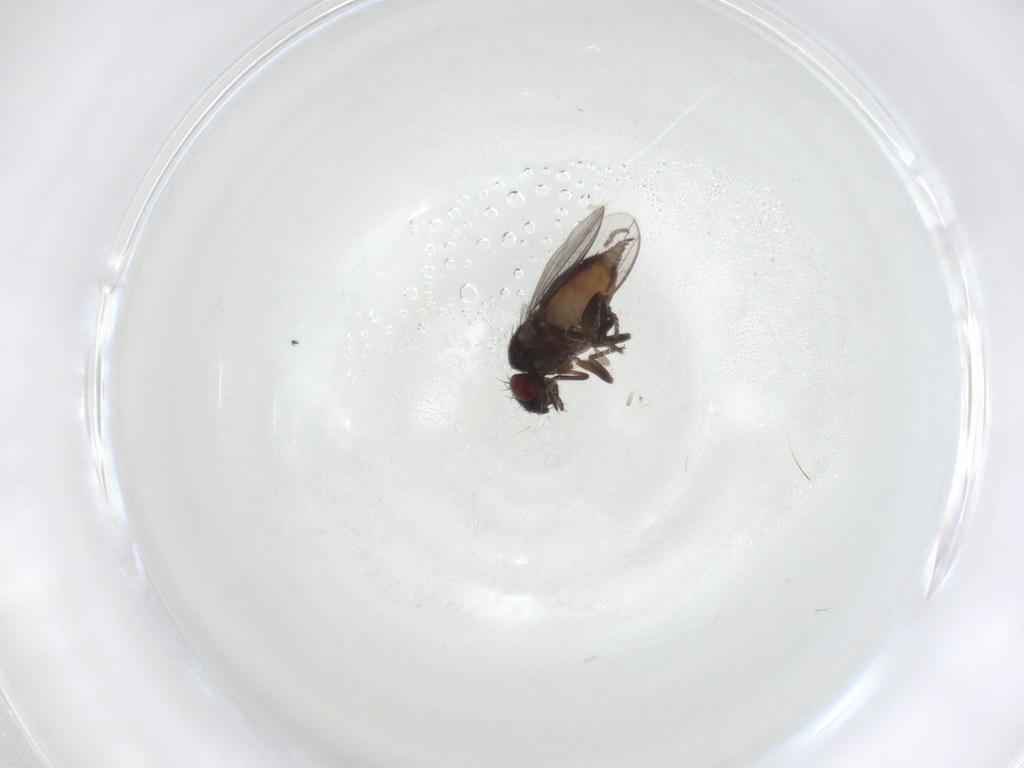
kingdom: Animalia
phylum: Arthropoda
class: Insecta
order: Diptera
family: Milichiidae
